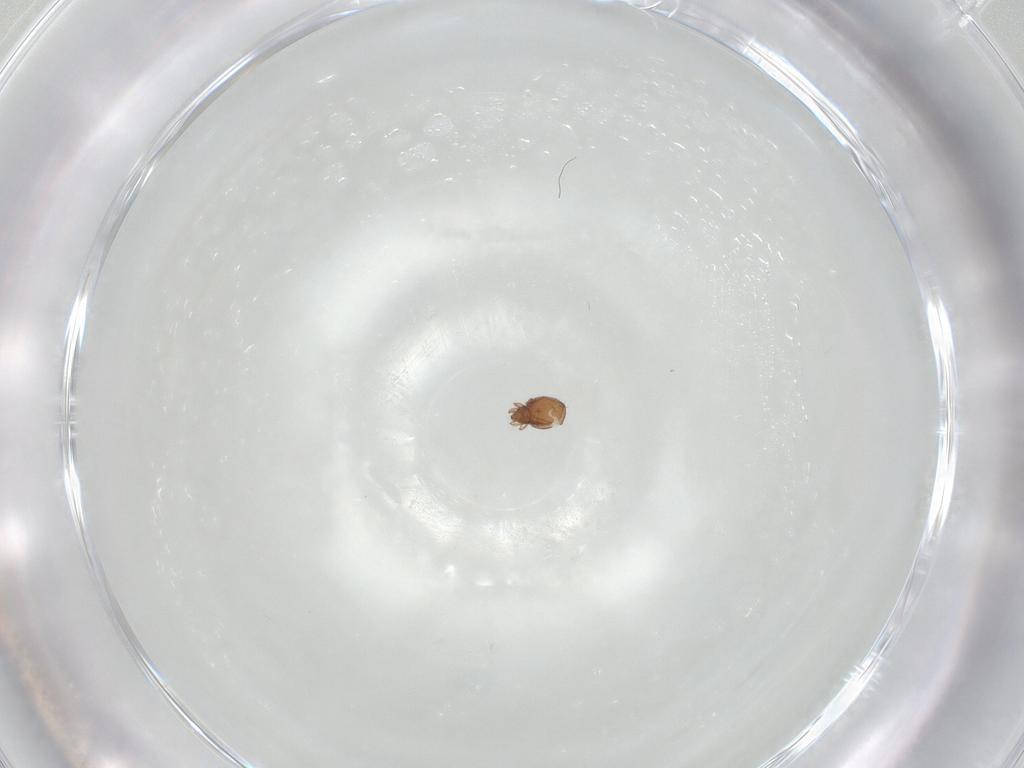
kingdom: Animalia
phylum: Arthropoda
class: Arachnida
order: Sarcoptiformes
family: Oribatulidae
